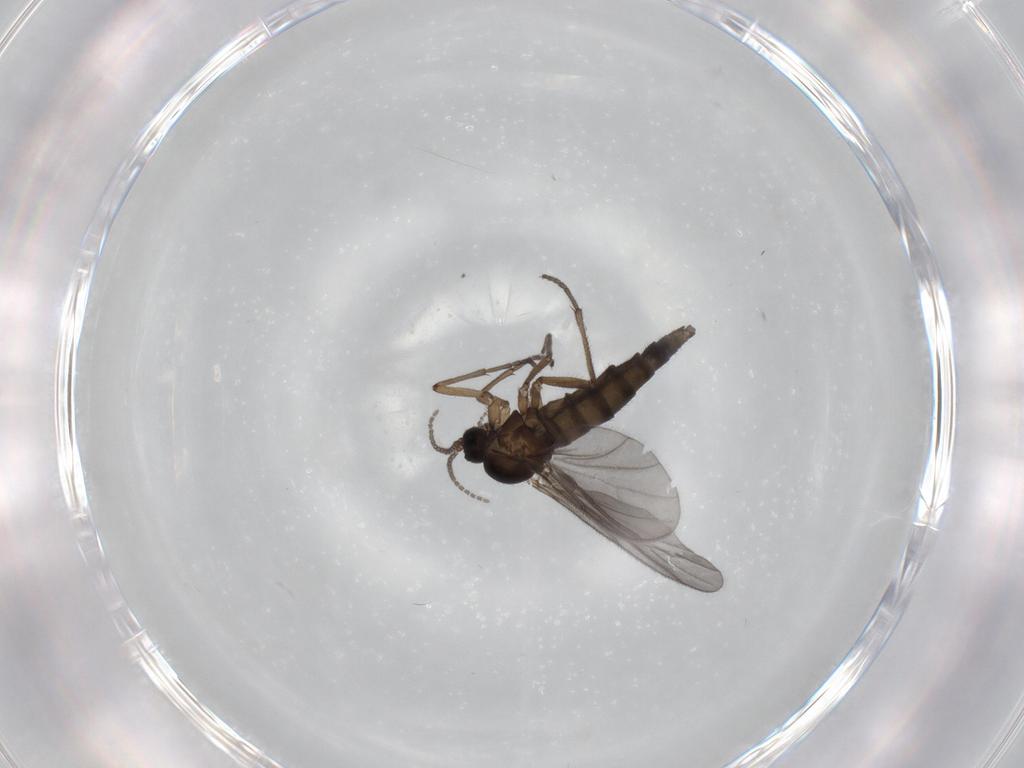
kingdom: Animalia
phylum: Arthropoda
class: Insecta
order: Diptera
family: Sciaridae
